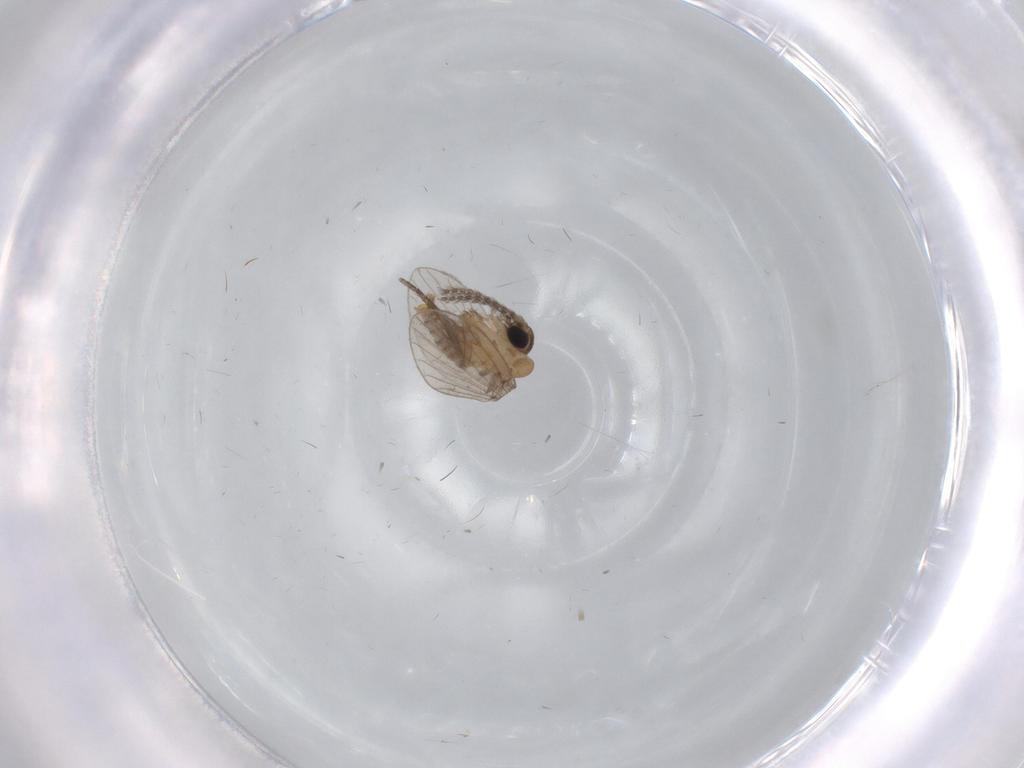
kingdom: Animalia
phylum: Arthropoda
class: Insecta
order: Diptera
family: Psychodidae
